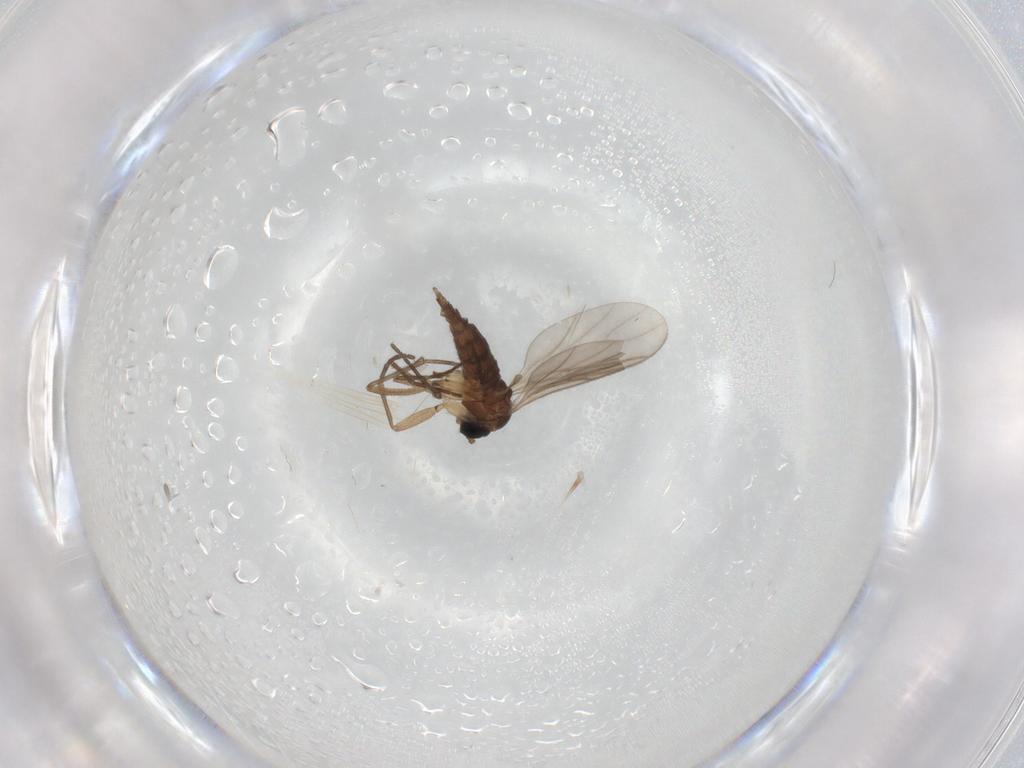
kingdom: Animalia
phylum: Arthropoda
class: Insecta
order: Diptera
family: Sciaridae
